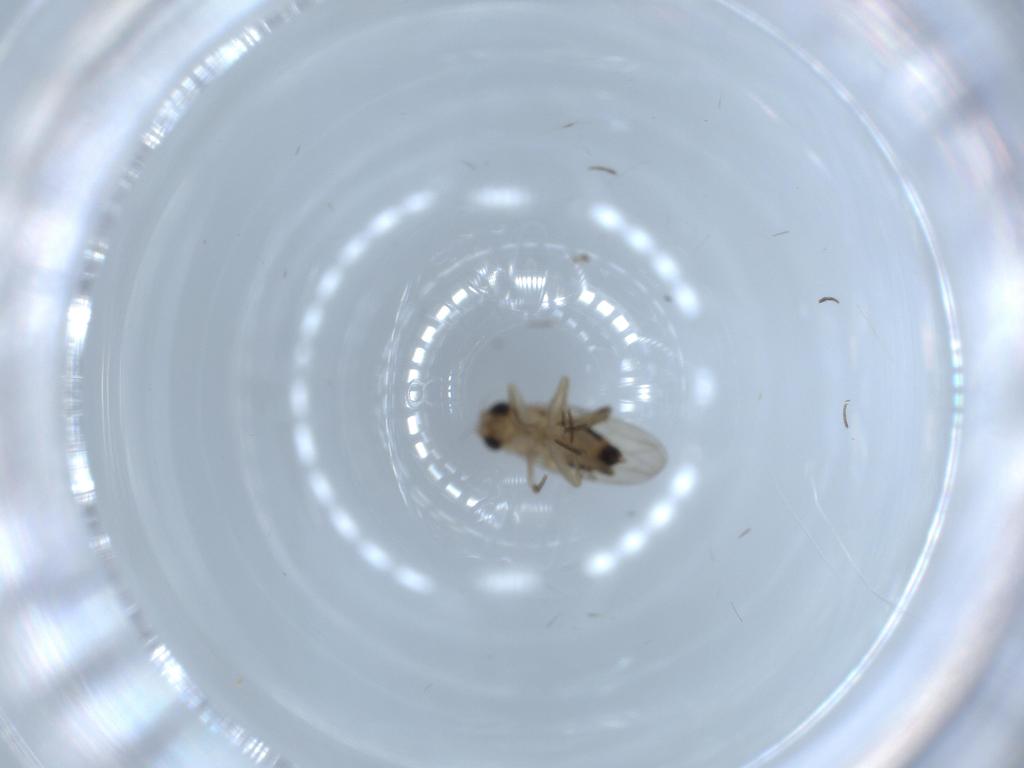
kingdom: Animalia
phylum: Arthropoda
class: Insecta
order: Diptera
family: Phoridae
